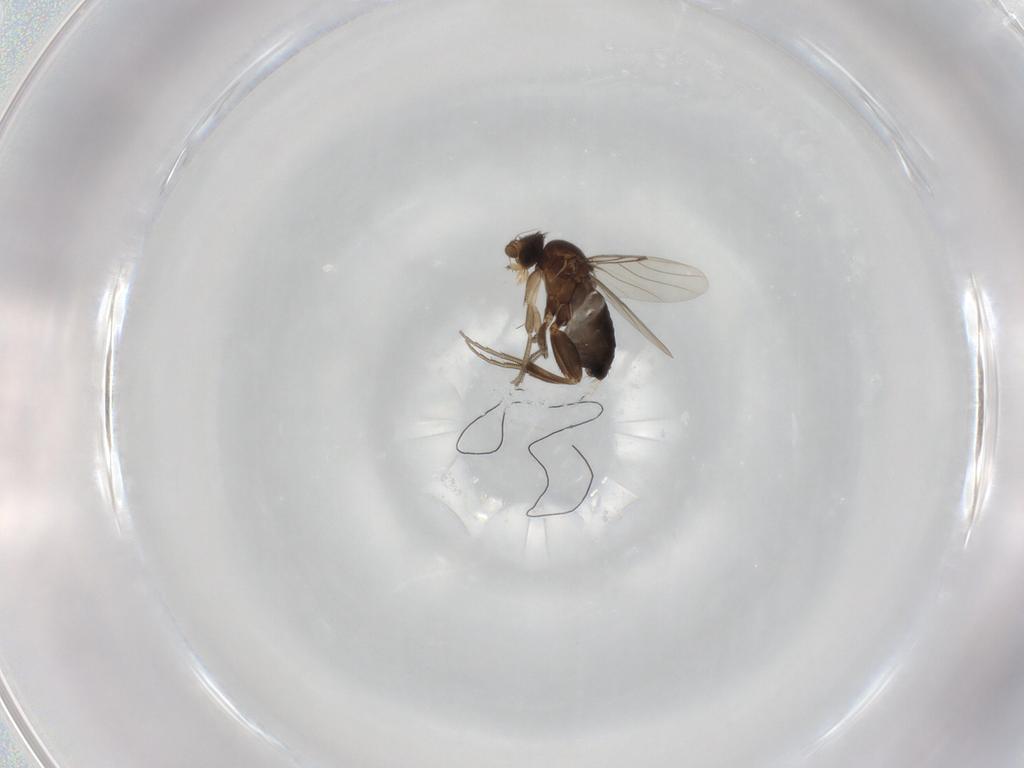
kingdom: Animalia
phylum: Arthropoda
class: Insecta
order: Diptera
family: Phoridae
